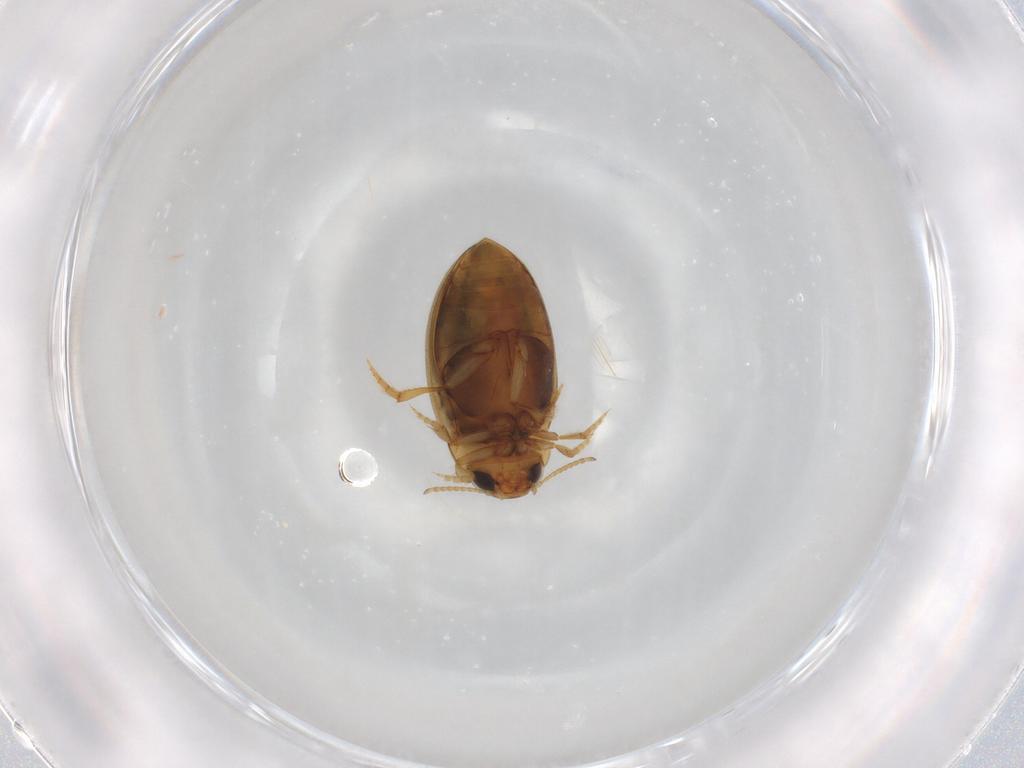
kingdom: Animalia
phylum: Arthropoda
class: Insecta
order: Coleoptera
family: Dytiscidae
